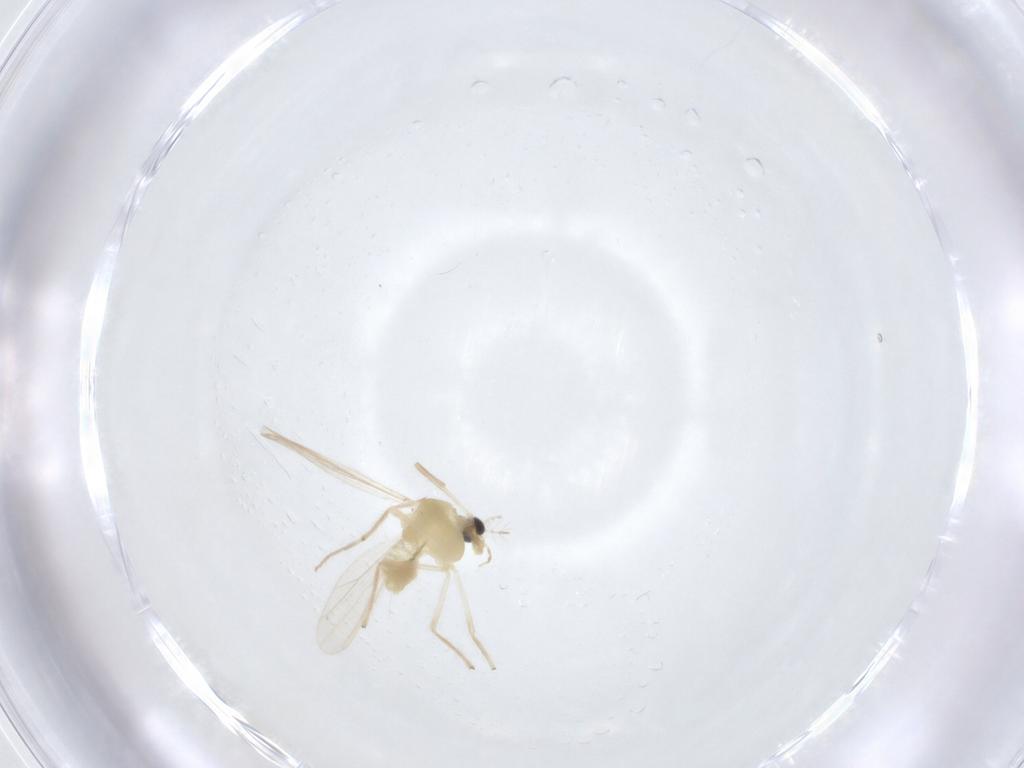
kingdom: Animalia
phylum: Arthropoda
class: Insecta
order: Diptera
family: Chironomidae
